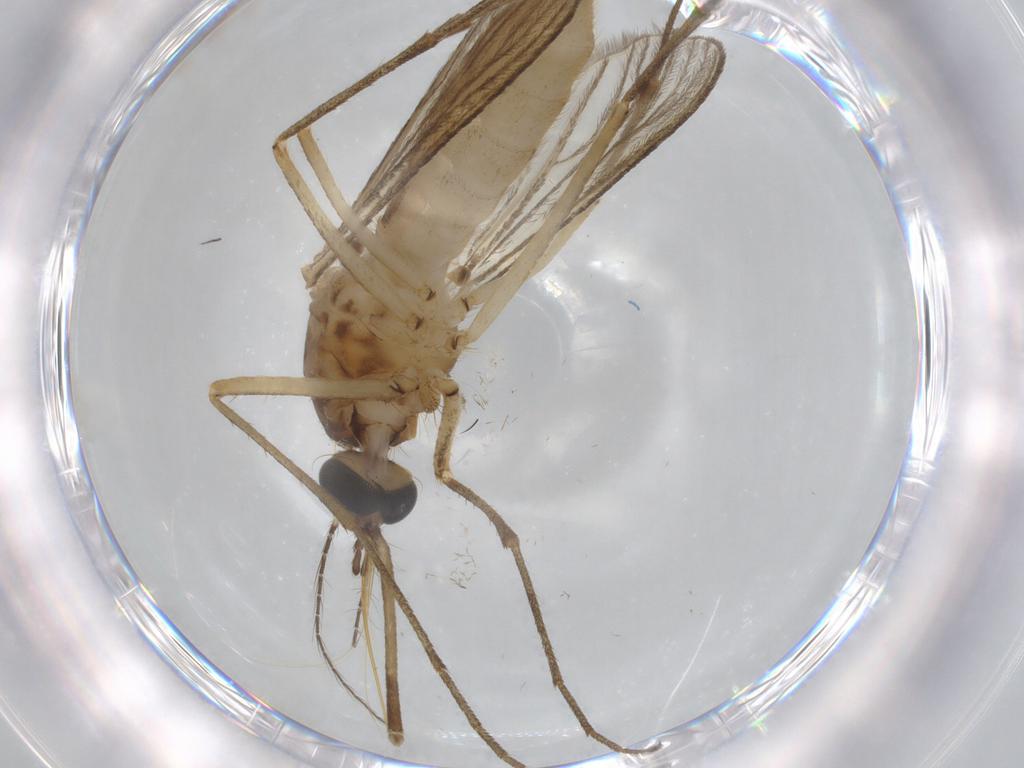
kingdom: Animalia
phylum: Arthropoda
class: Insecta
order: Diptera
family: Culicidae
